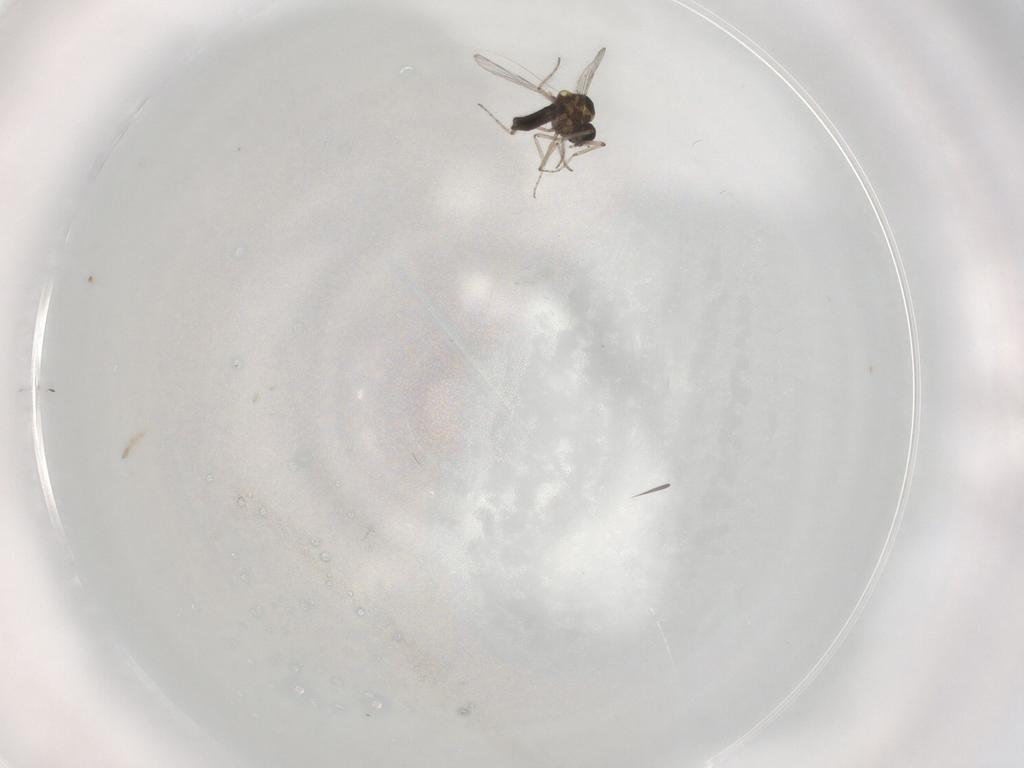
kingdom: Animalia
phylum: Arthropoda
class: Insecta
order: Diptera
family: Ceratopogonidae
